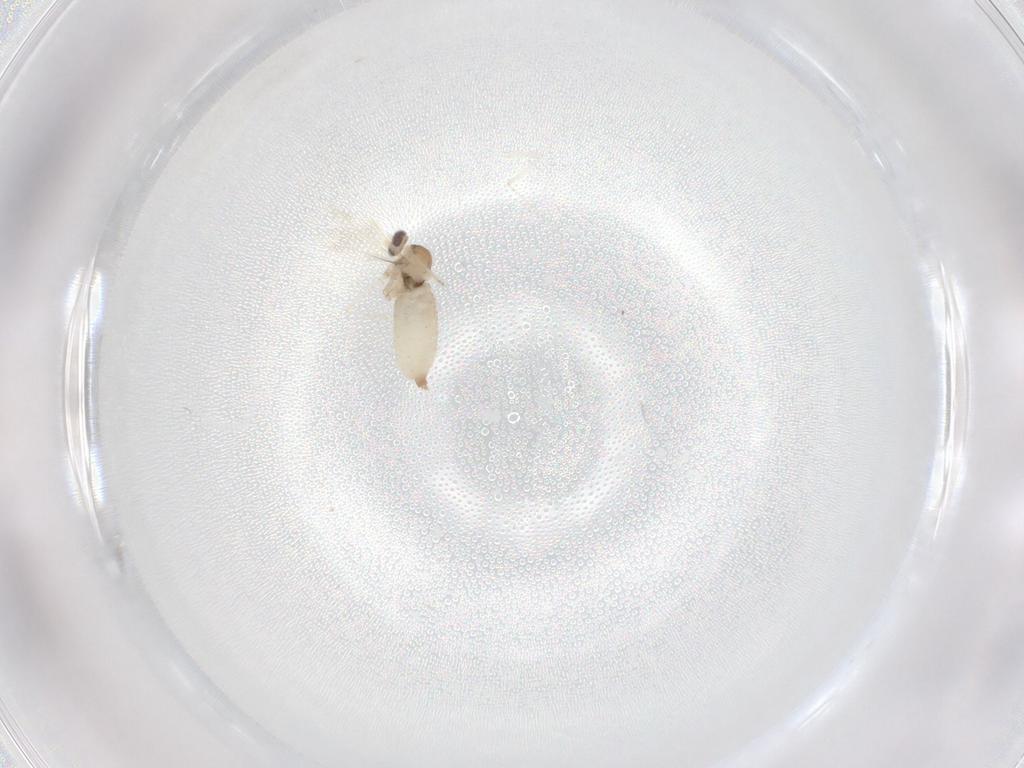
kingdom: Animalia
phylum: Arthropoda
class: Insecta
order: Diptera
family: Cecidomyiidae
